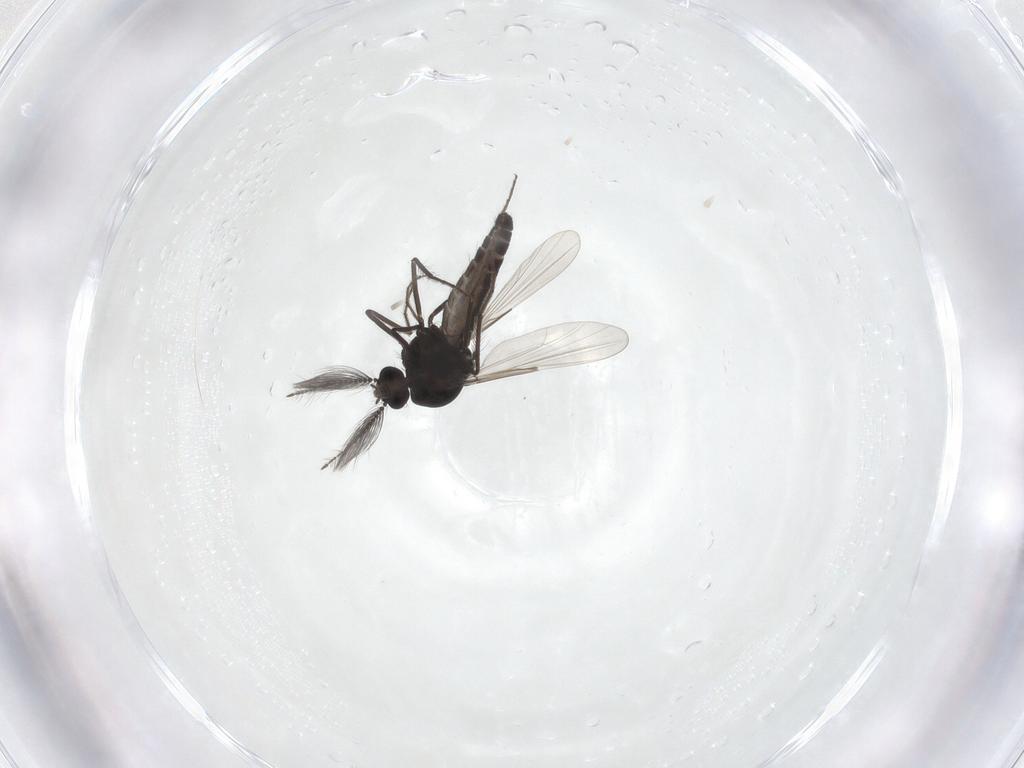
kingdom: Animalia
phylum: Arthropoda
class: Insecta
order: Diptera
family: Ceratopogonidae
